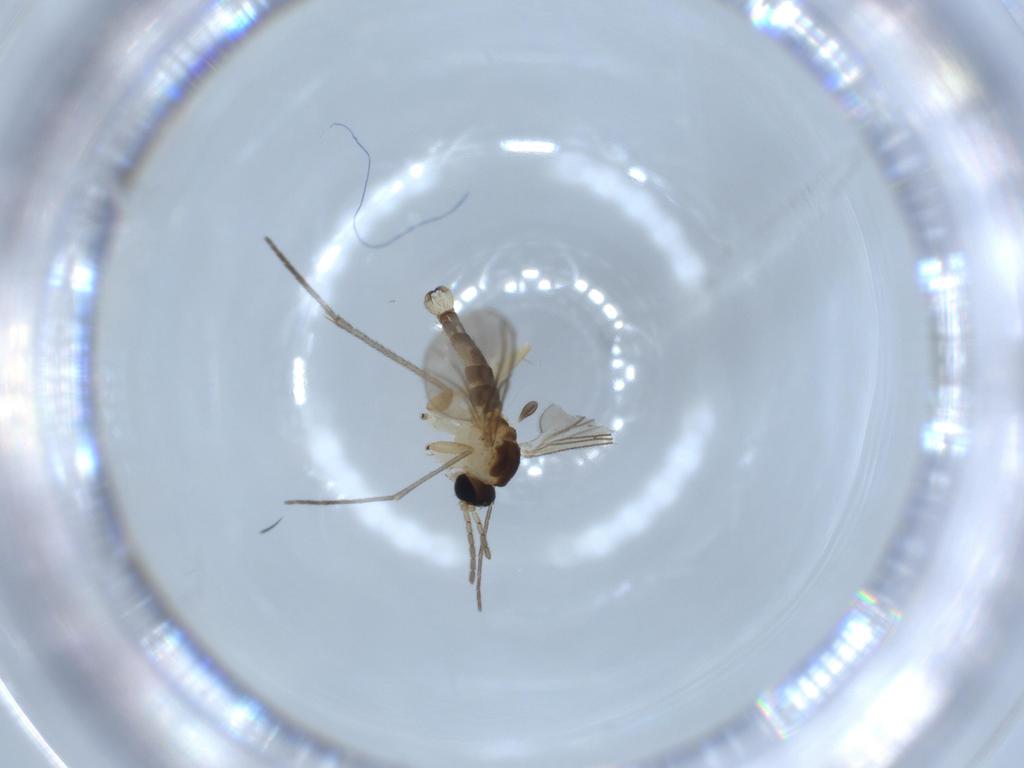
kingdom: Animalia
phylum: Arthropoda
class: Insecta
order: Diptera
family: Sciaridae
